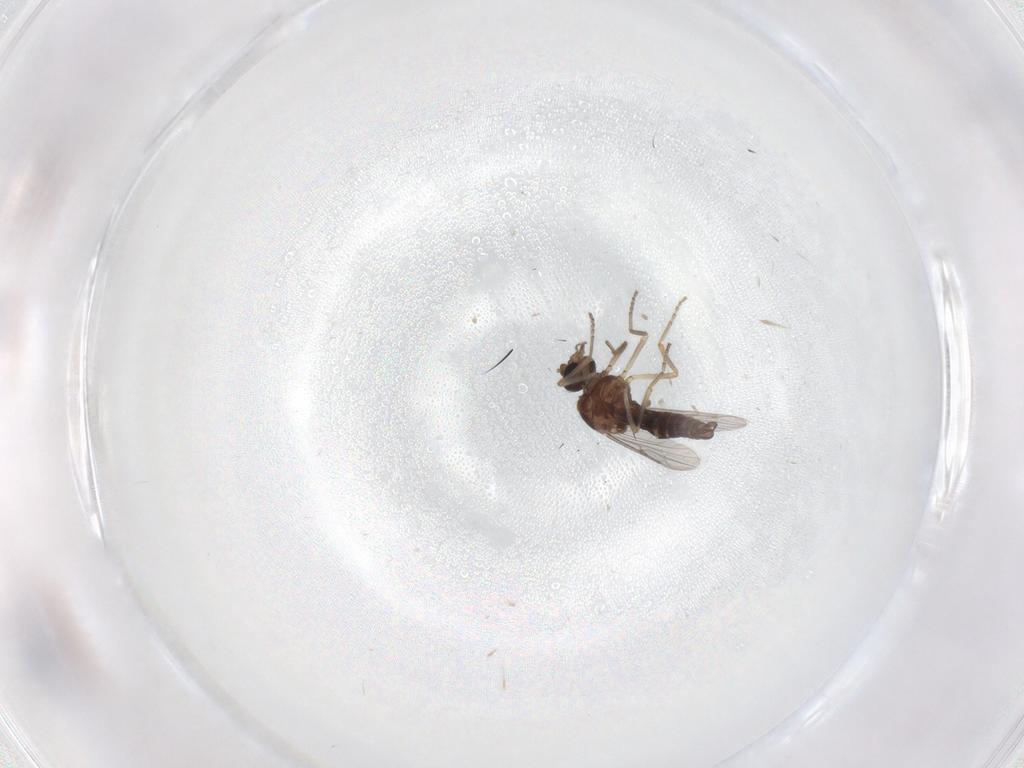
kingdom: Animalia
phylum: Arthropoda
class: Insecta
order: Diptera
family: Ceratopogonidae
